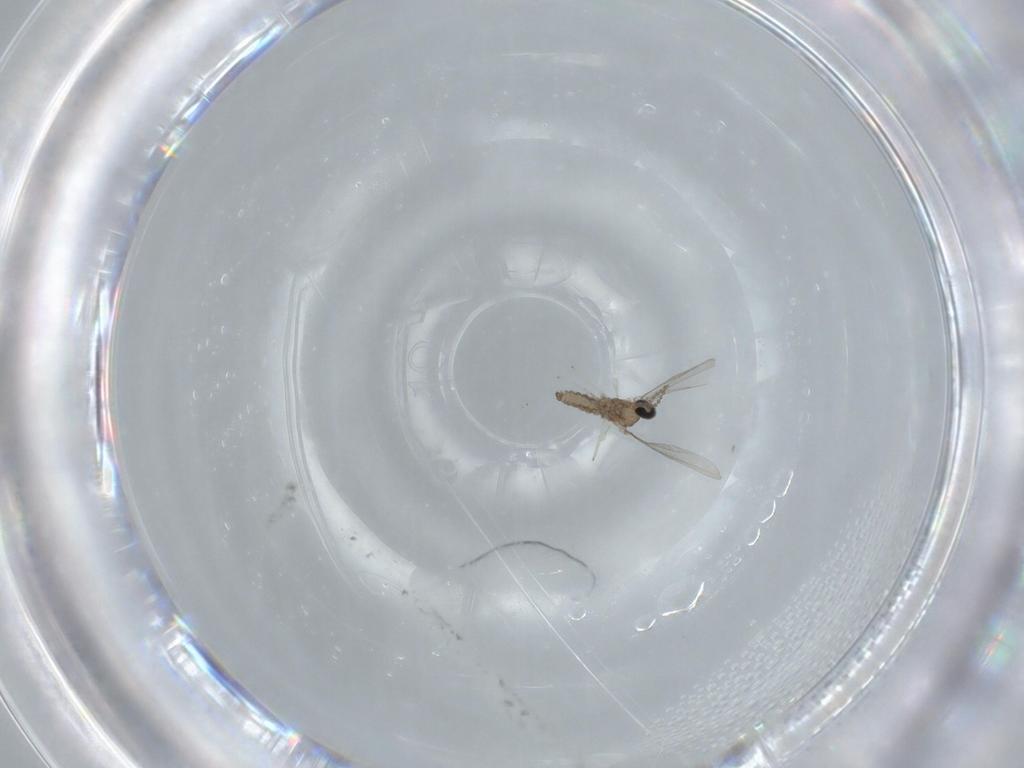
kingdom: Animalia
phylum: Arthropoda
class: Insecta
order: Diptera
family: Cecidomyiidae
